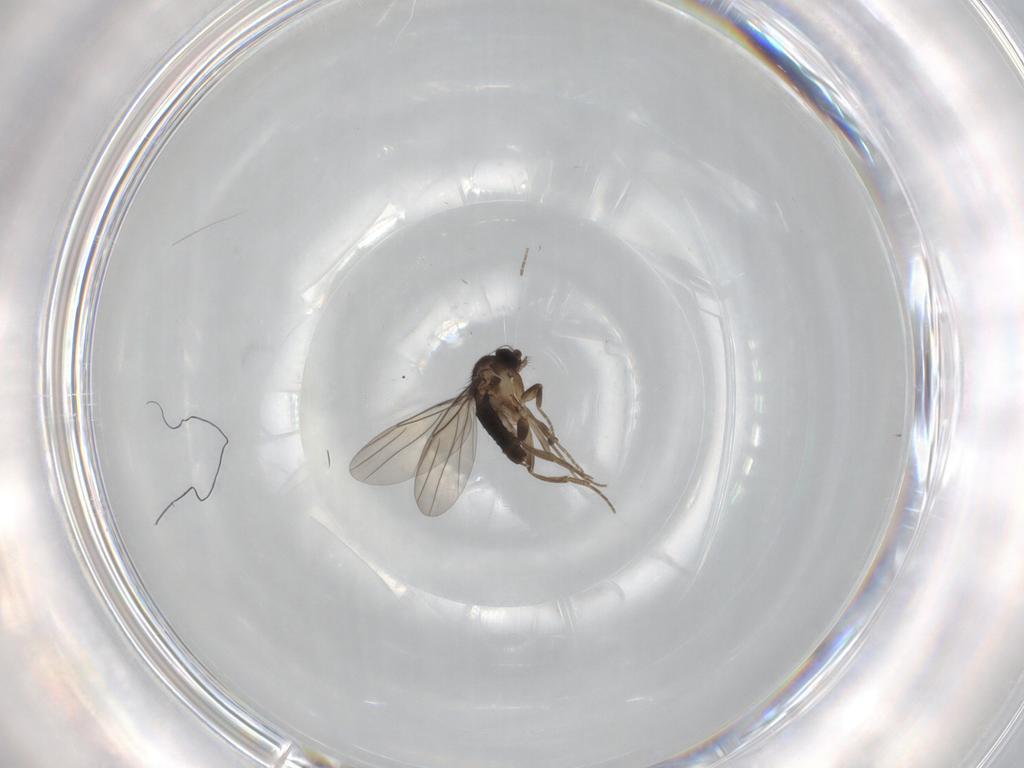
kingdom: Animalia
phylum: Arthropoda
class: Insecta
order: Diptera
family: Phoridae
